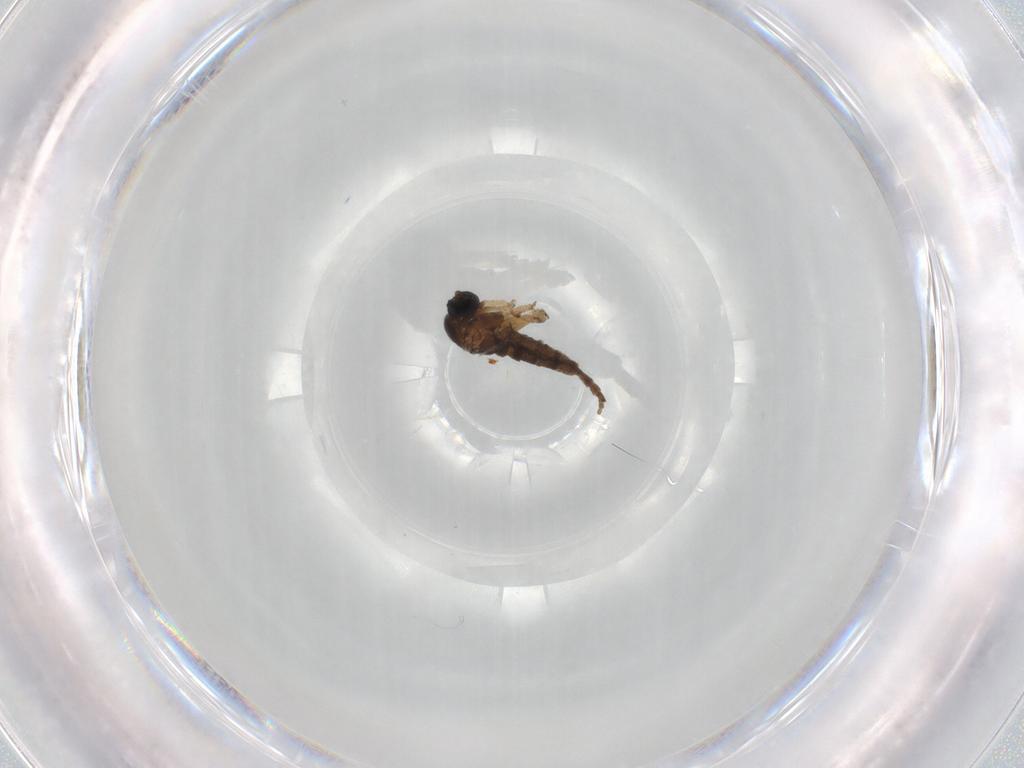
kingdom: Animalia
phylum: Arthropoda
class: Insecta
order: Diptera
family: Sciaridae
